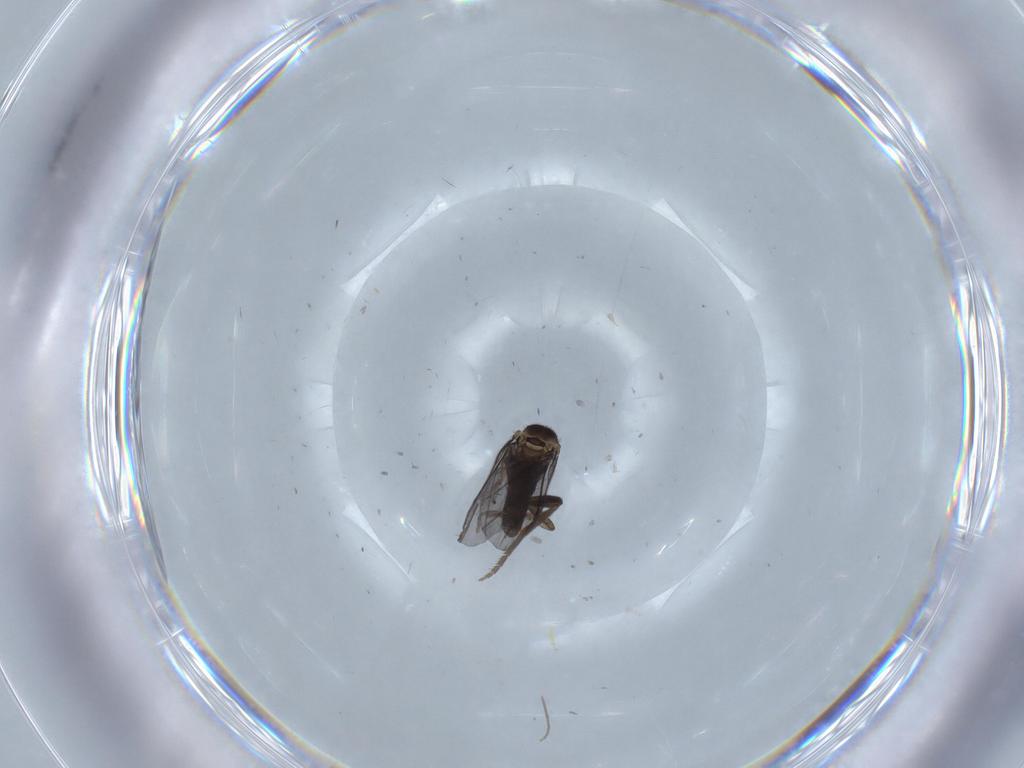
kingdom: Animalia
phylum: Arthropoda
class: Insecta
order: Diptera
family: Phoridae
